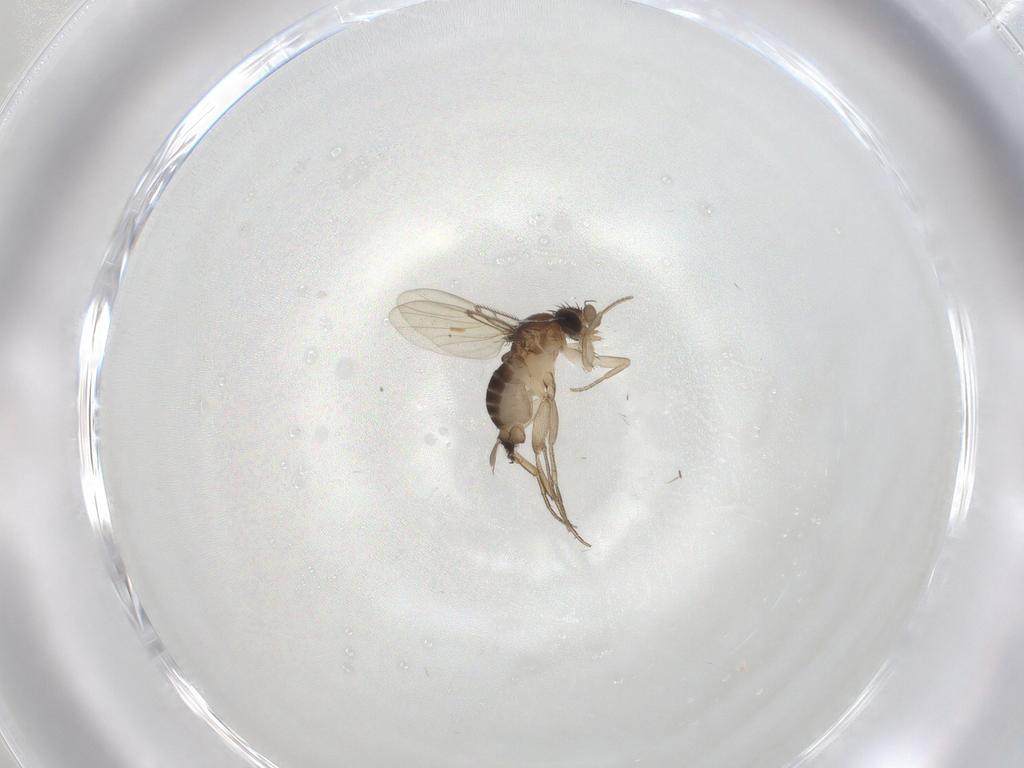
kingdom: Animalia
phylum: Arthropoda
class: Insecta
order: Diptera
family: Phoridae
